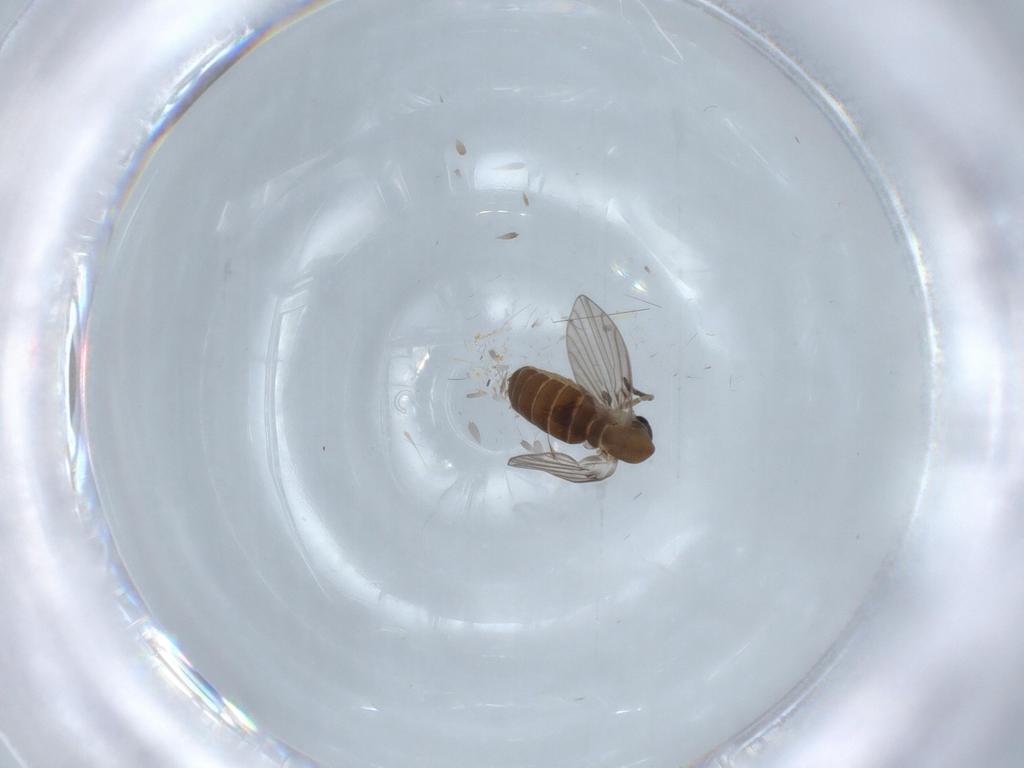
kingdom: Animalia
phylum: Arthropoda
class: Insecta
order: Diptera
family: Psychodidae
